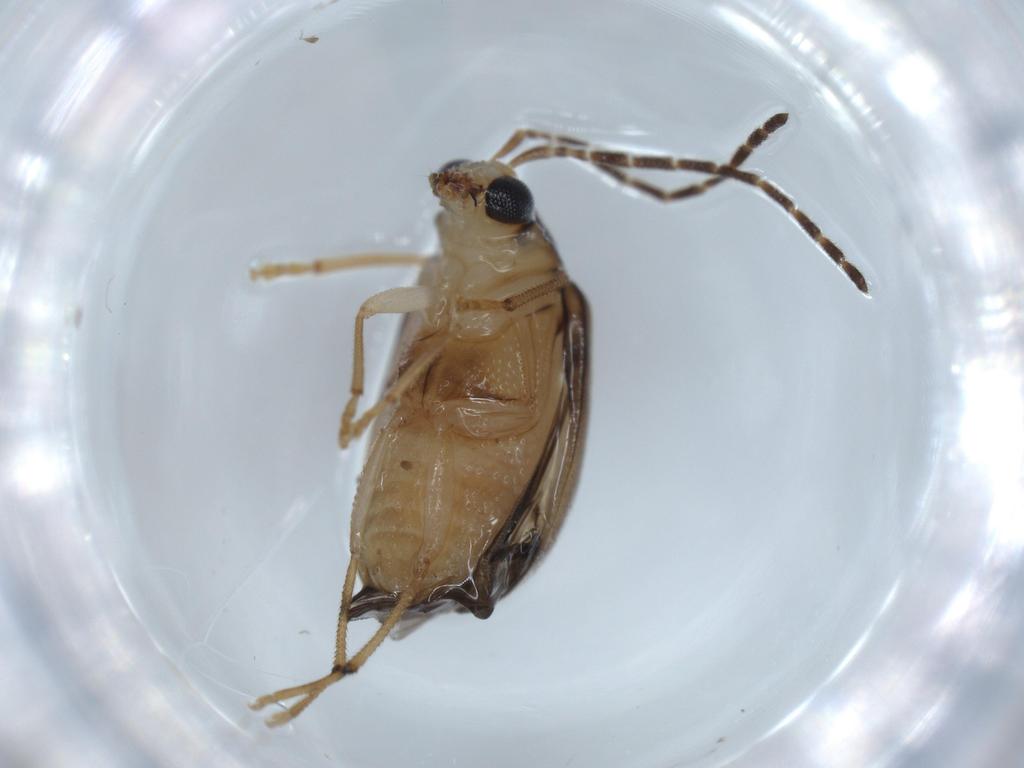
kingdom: Animalia
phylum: Arthropoda
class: Insecta
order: Coleoptera
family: Chrysomelidae
